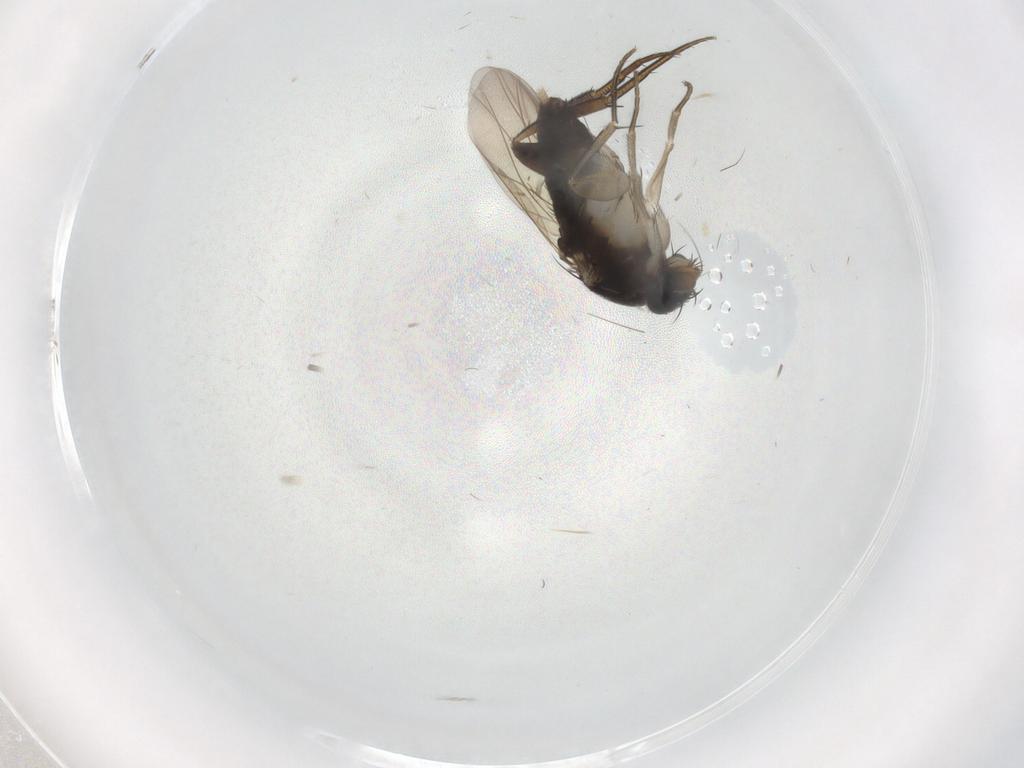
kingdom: Animalia
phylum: Arthropoda
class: Insecta
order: Diptera
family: Phoridae
